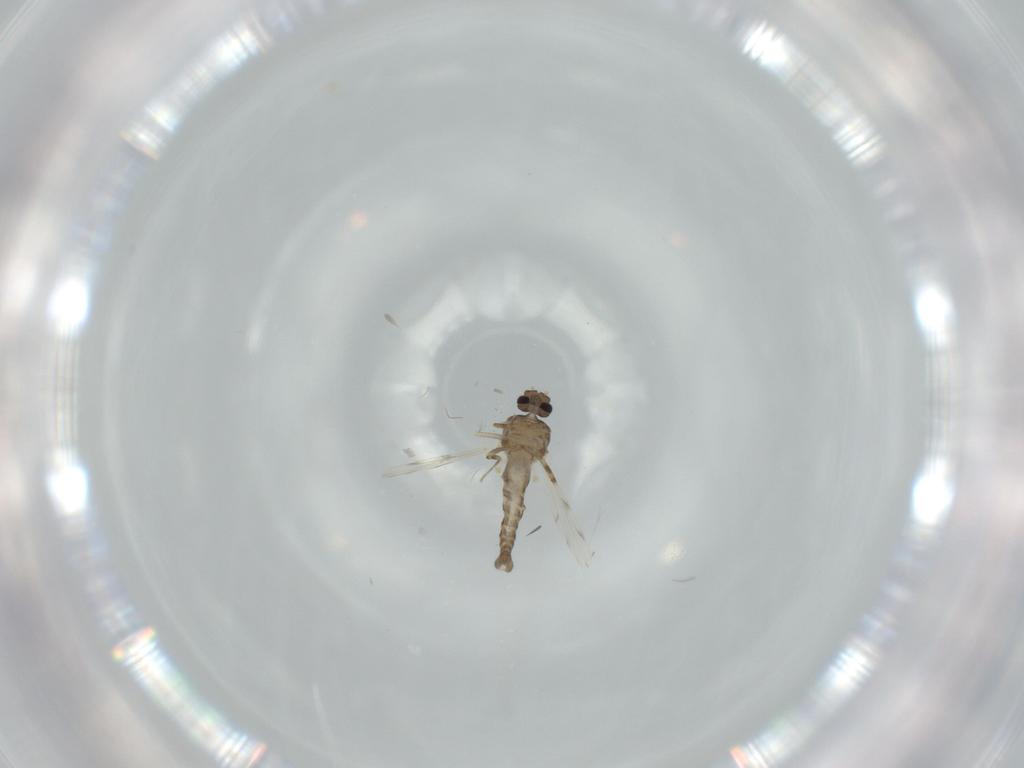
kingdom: Animalia
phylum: Arthropoda
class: Insecta
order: Diptera
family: Ceratopogonidae
